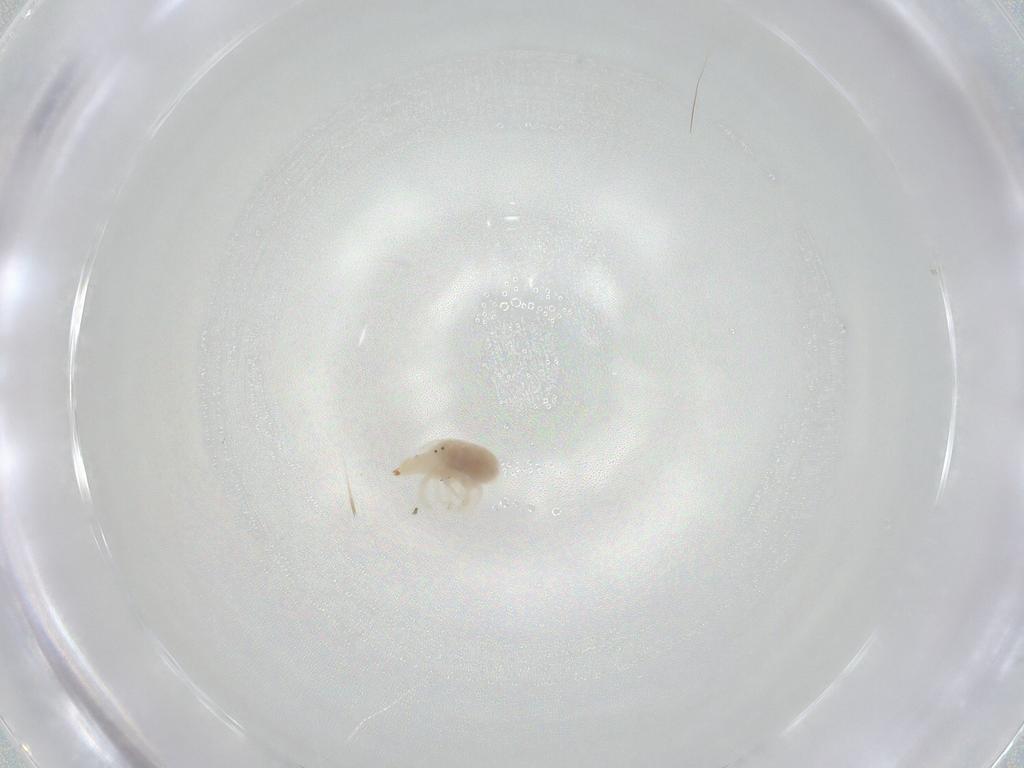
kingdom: Animalia
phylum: Arthropoda
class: Arachnida
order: Trombidiformes
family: Bdellidae
